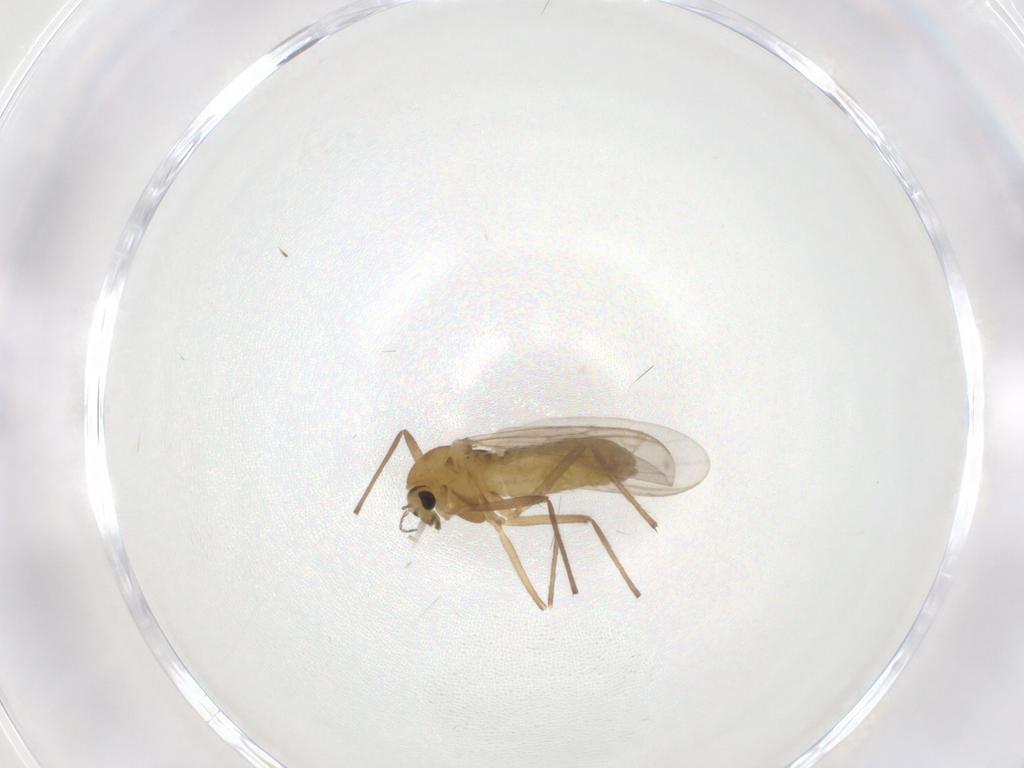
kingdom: Animalia
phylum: Arthropoda
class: Insecta
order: Diptera
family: Chironomidae
